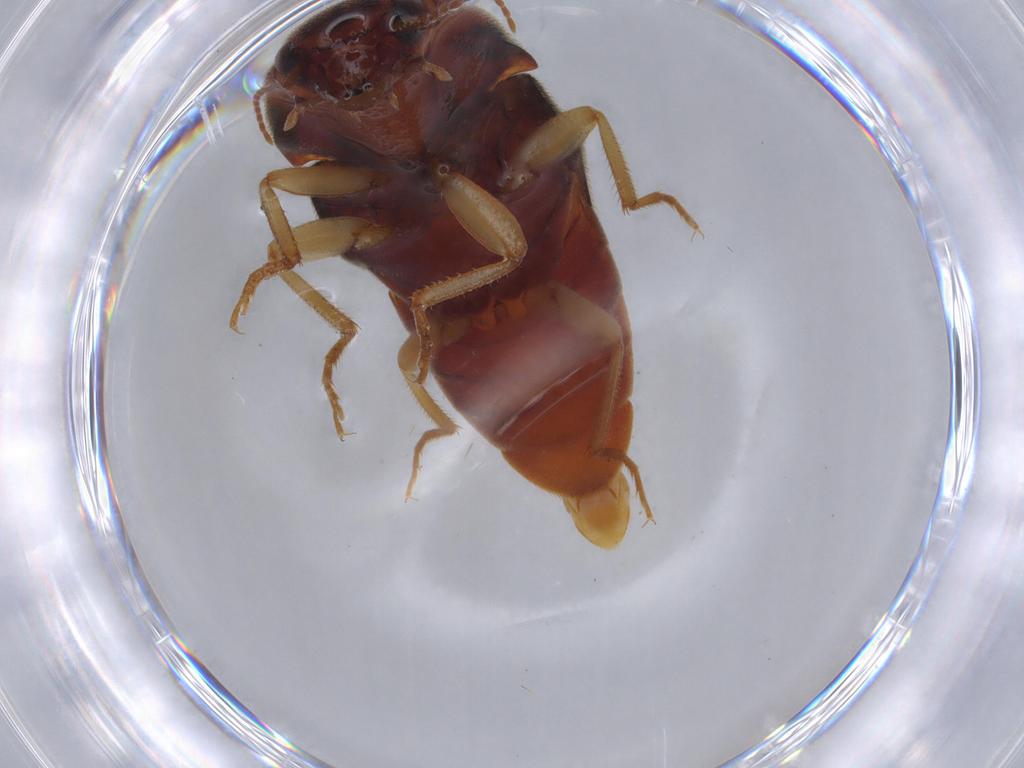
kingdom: Animalia
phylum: Arthropoda
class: Insecta
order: Coleoptera
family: Elateridae
